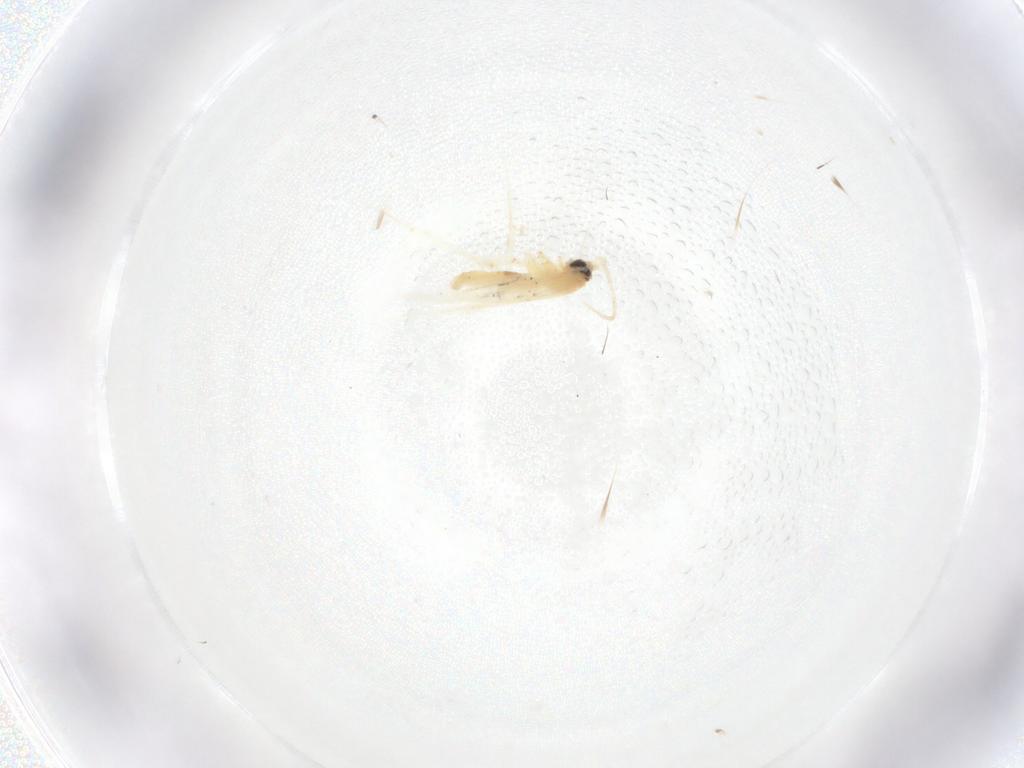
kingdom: Animalia
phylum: Arthropoda
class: Insecta
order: Lepidoptera
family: Nepticulidae
